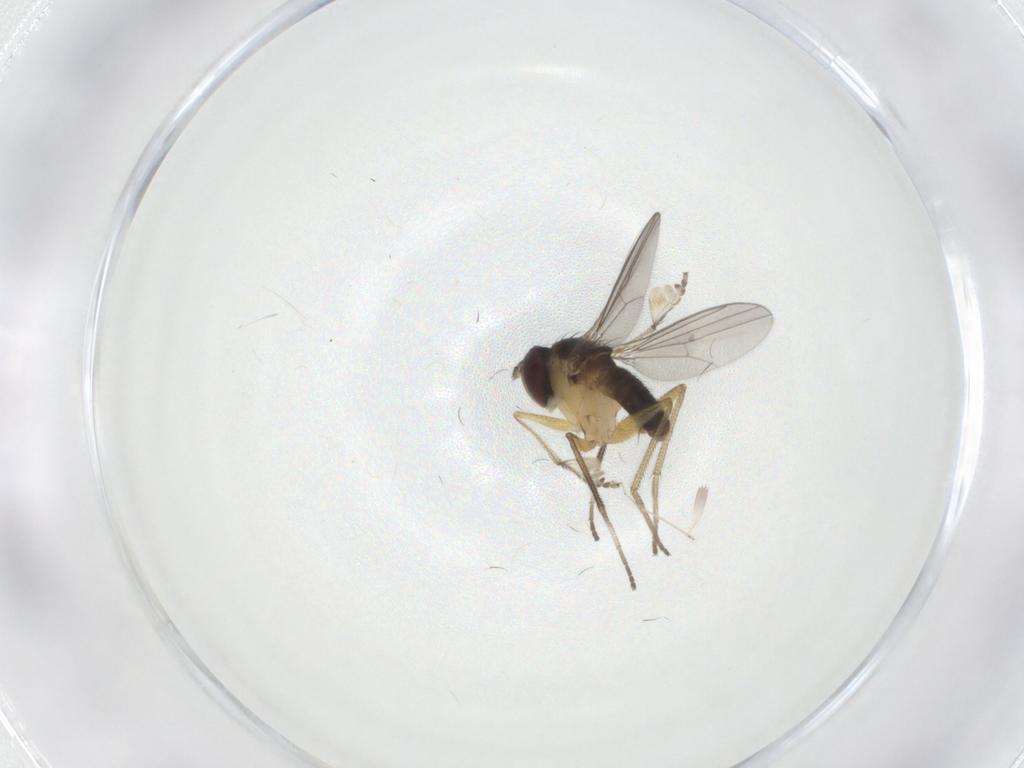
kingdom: Animalia
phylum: Arthropoda
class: Insecta
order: Diptera
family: Dolichopodidae
